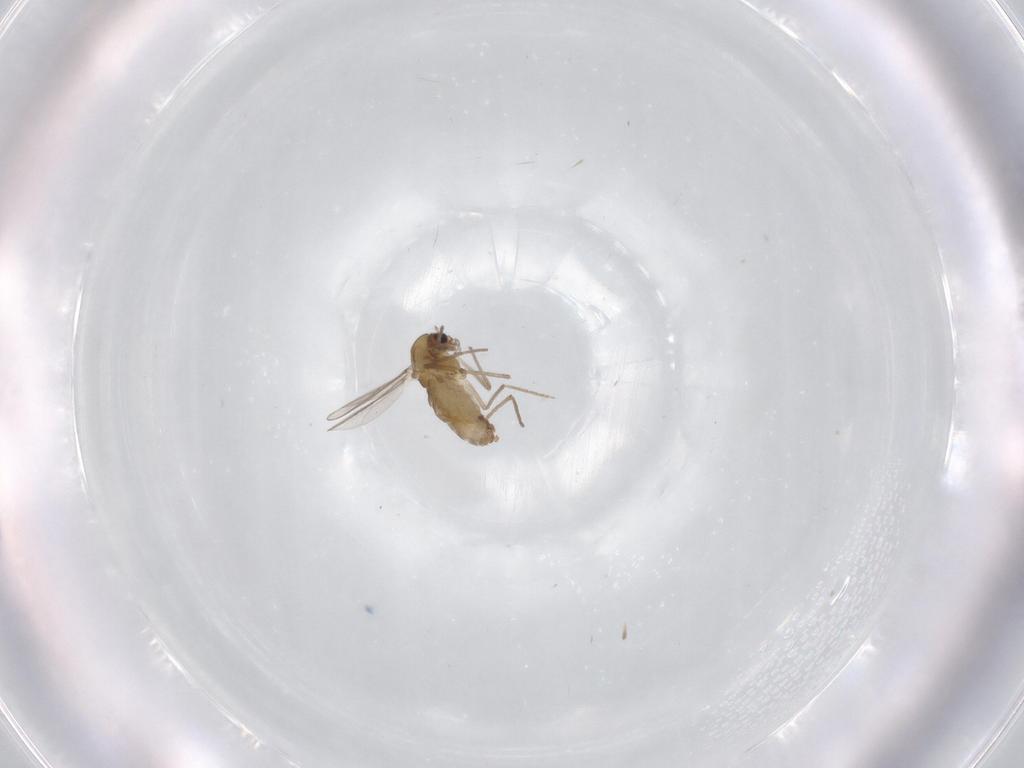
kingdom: Animalia
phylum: Arthropoda
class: Insecta
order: Diptera
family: Chironomidae
